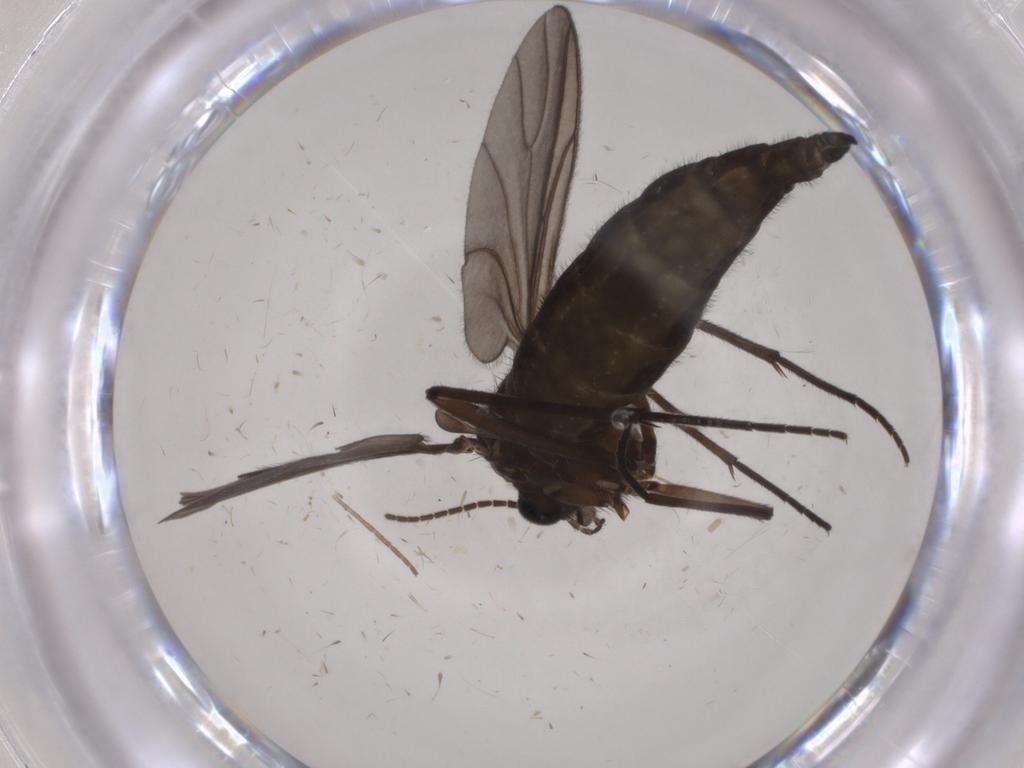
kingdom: Animalia
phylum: Arthropoda
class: Insecta
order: Diptera
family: Sciaridae
